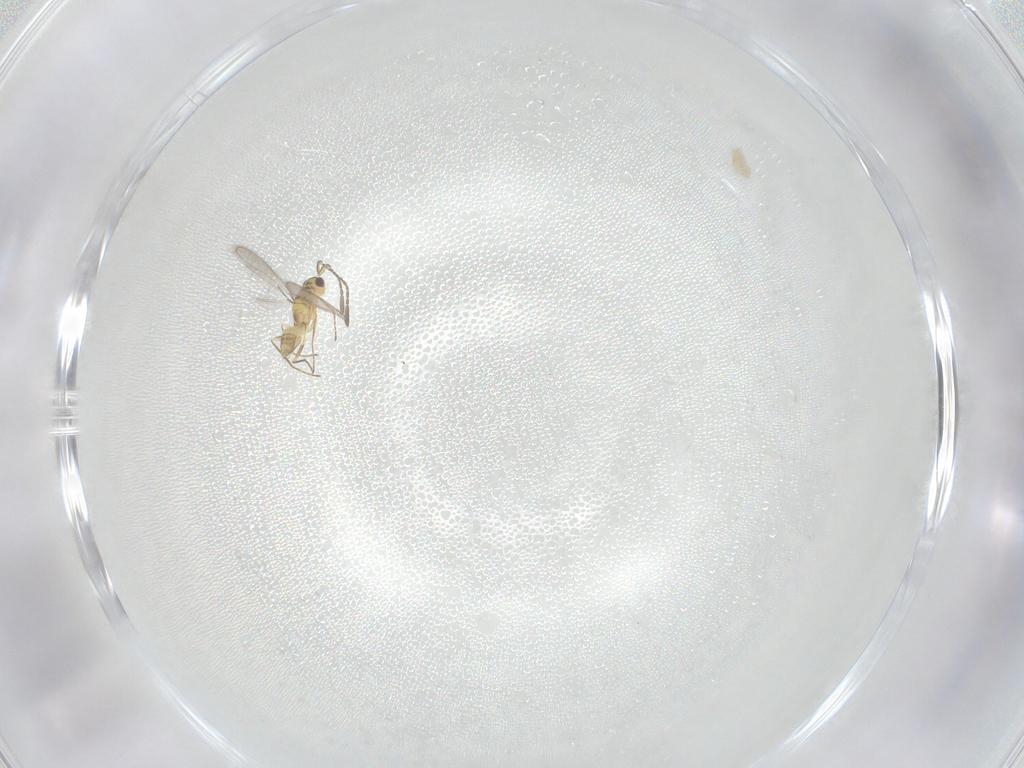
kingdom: Animalia
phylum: Arthropoda
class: Insecta
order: Hymenoptera
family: Mymaridae
